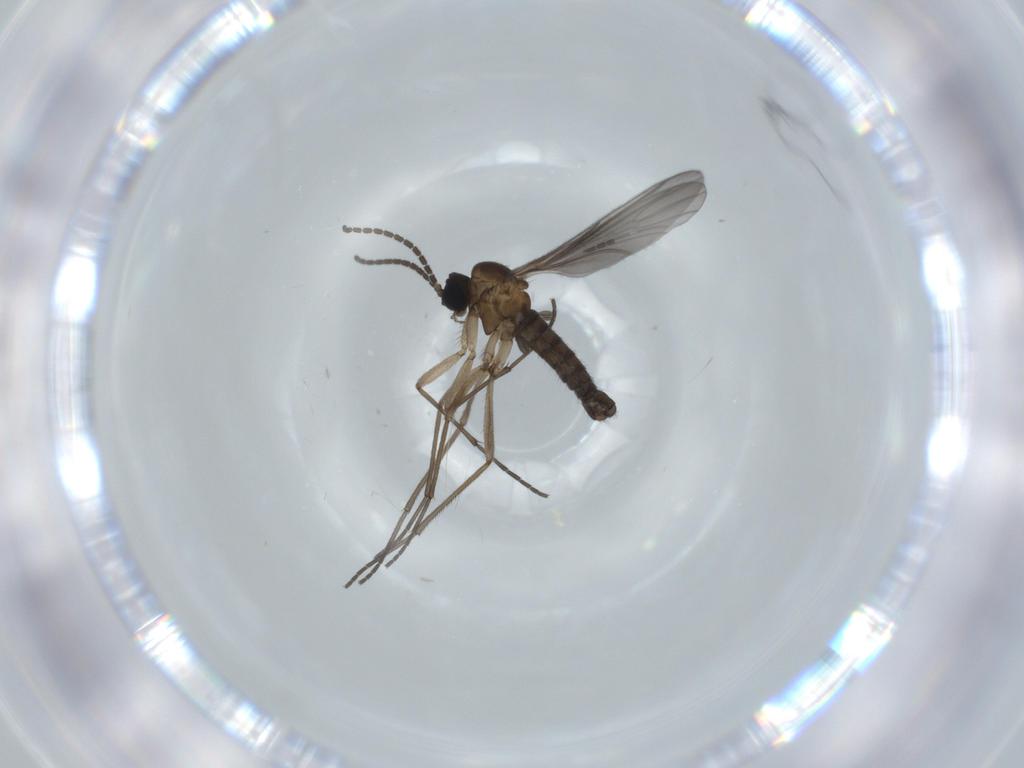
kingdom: Animalia
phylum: Arthropoda
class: Insecta
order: Diptera
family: Sciaridae
